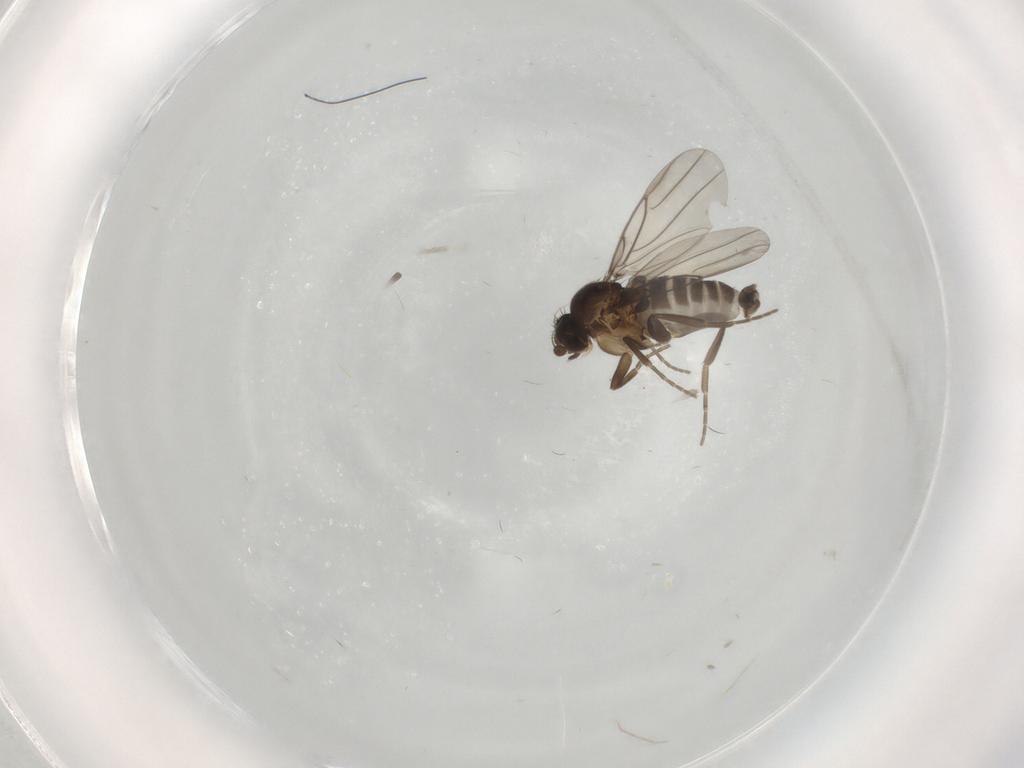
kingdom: Animalia
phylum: Arthropoda
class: Insecta
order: Diptera
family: Phoridae
